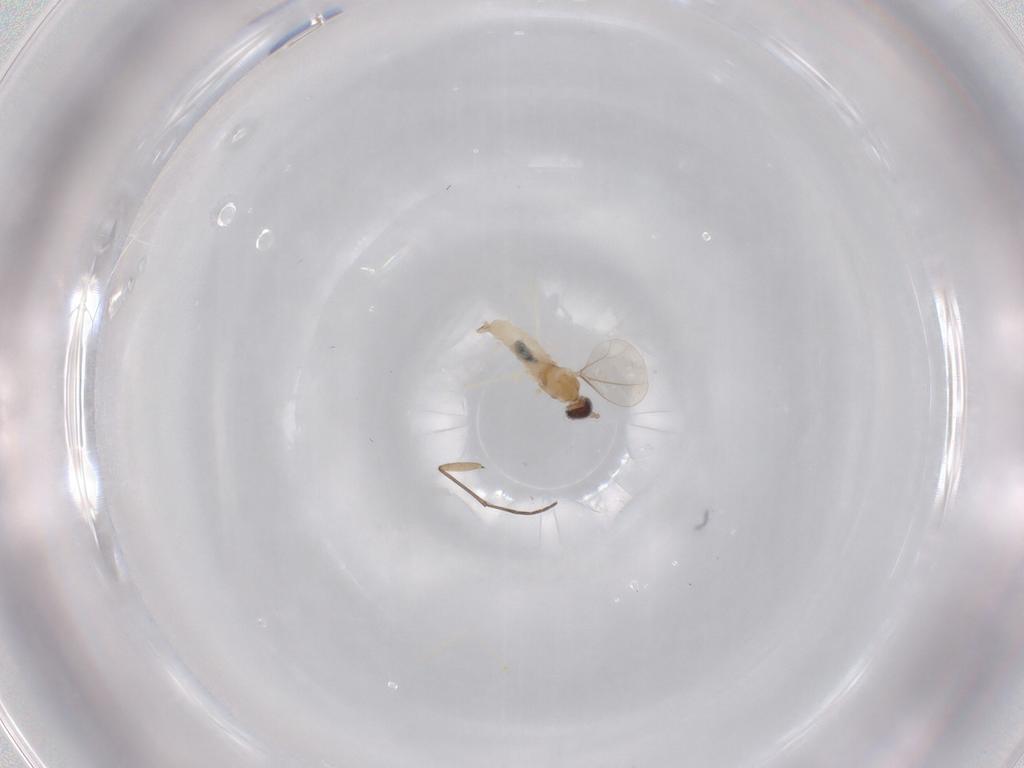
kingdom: Animalia
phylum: Arthropoda
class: Insecta
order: Diptera
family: Cecidomyiidae
